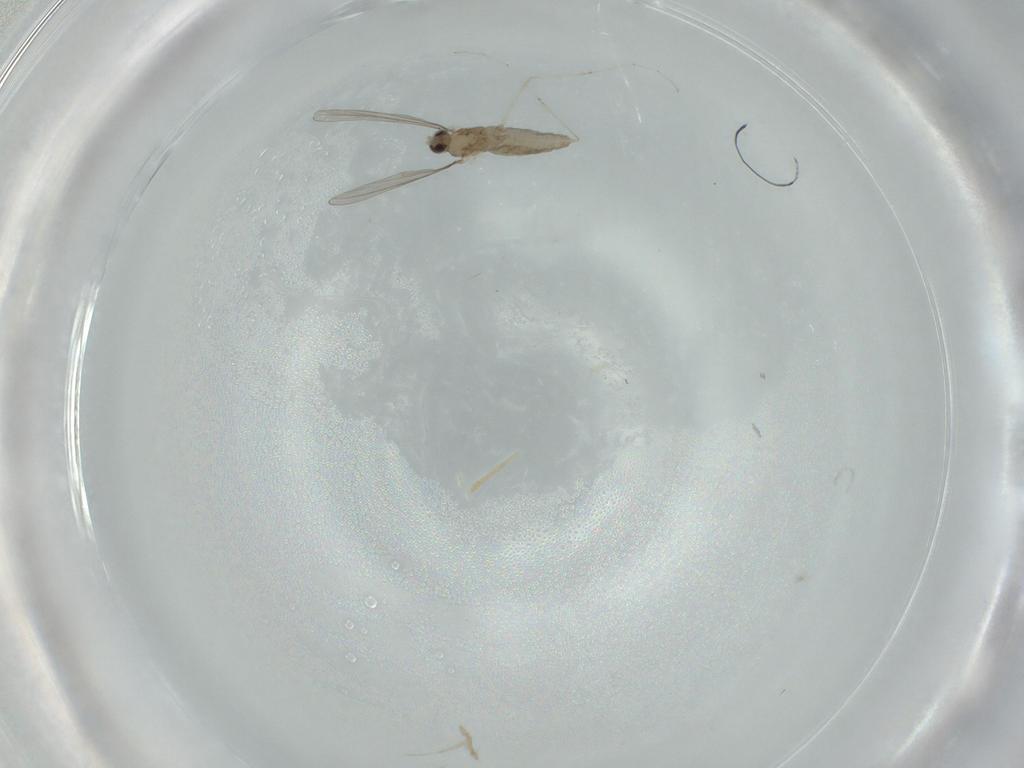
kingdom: Animalia
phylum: Arthropoda
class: Insecta
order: Diptera
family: Cecidomyiidae
